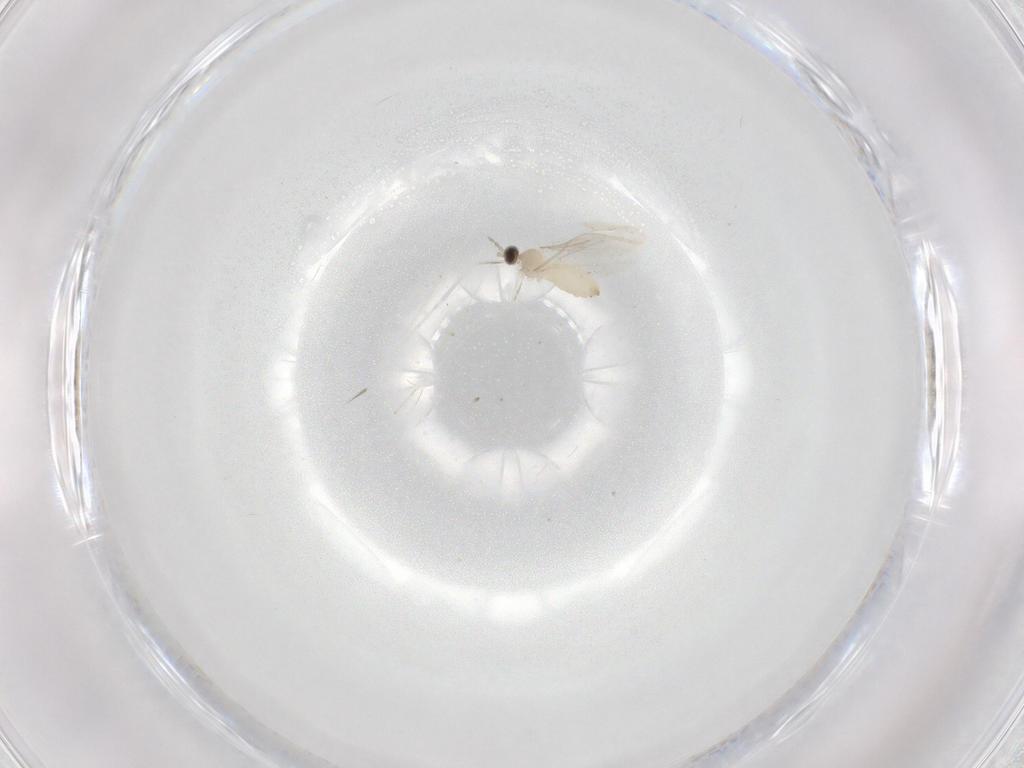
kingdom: Animalia
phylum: Arthropoda
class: Insecta
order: Diptera
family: Cecidomyiidae
